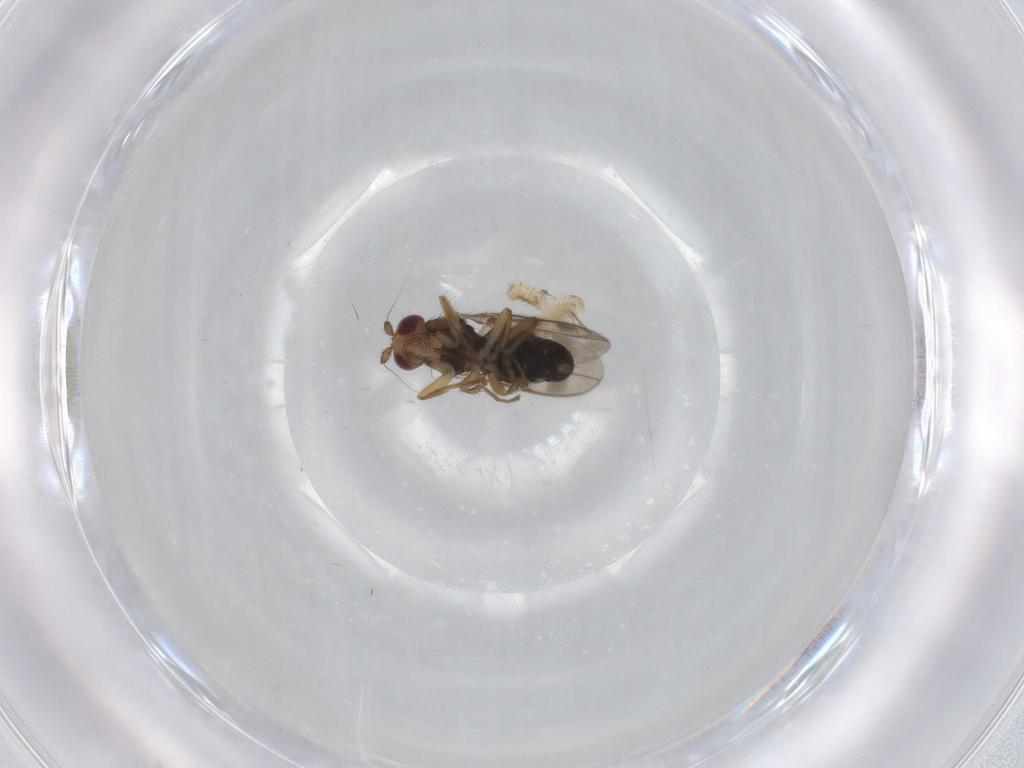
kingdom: Animalia
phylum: Arthropoda
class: Insecta
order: Diptera
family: Sphaeroceridae
